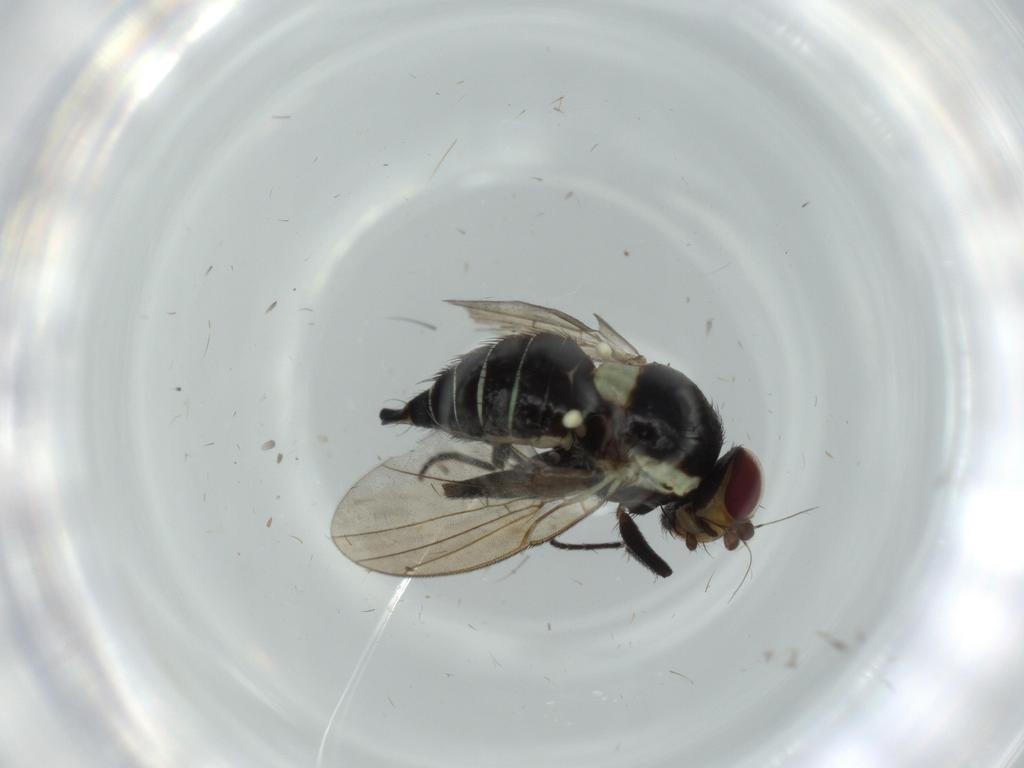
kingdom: Animalia
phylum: Arthropoda
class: Insecta
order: Diptera
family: Agromyzidae
